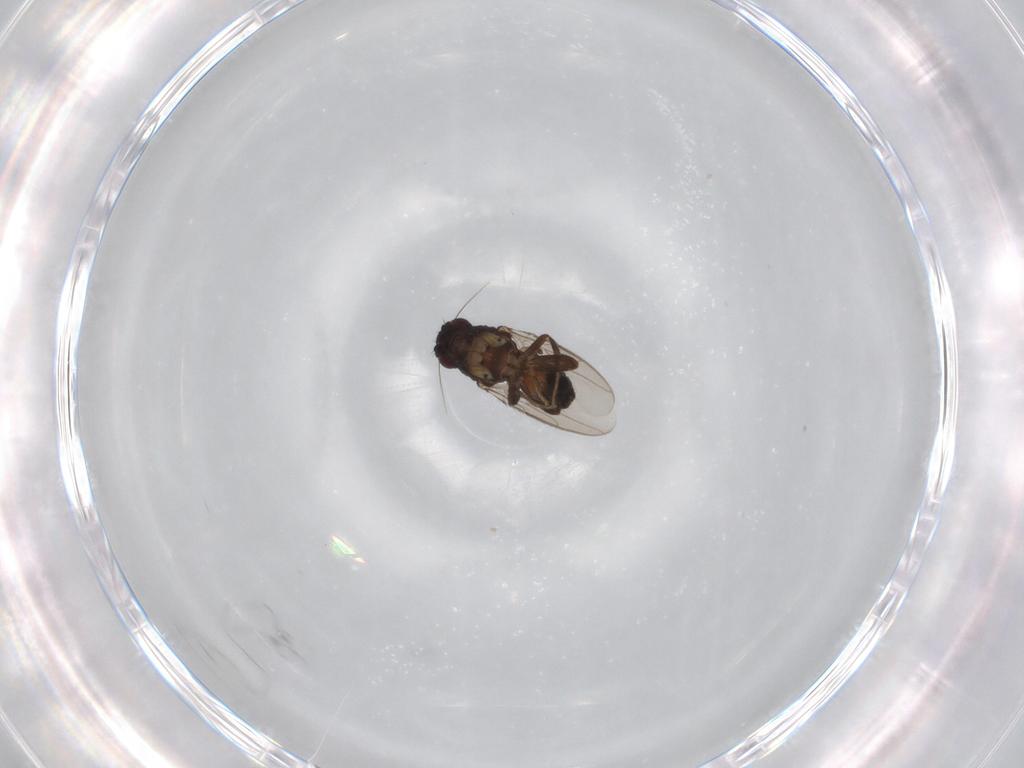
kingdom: Animalia
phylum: Arthropoda
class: Insecta
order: Diptera
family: Sphaeroceridae
